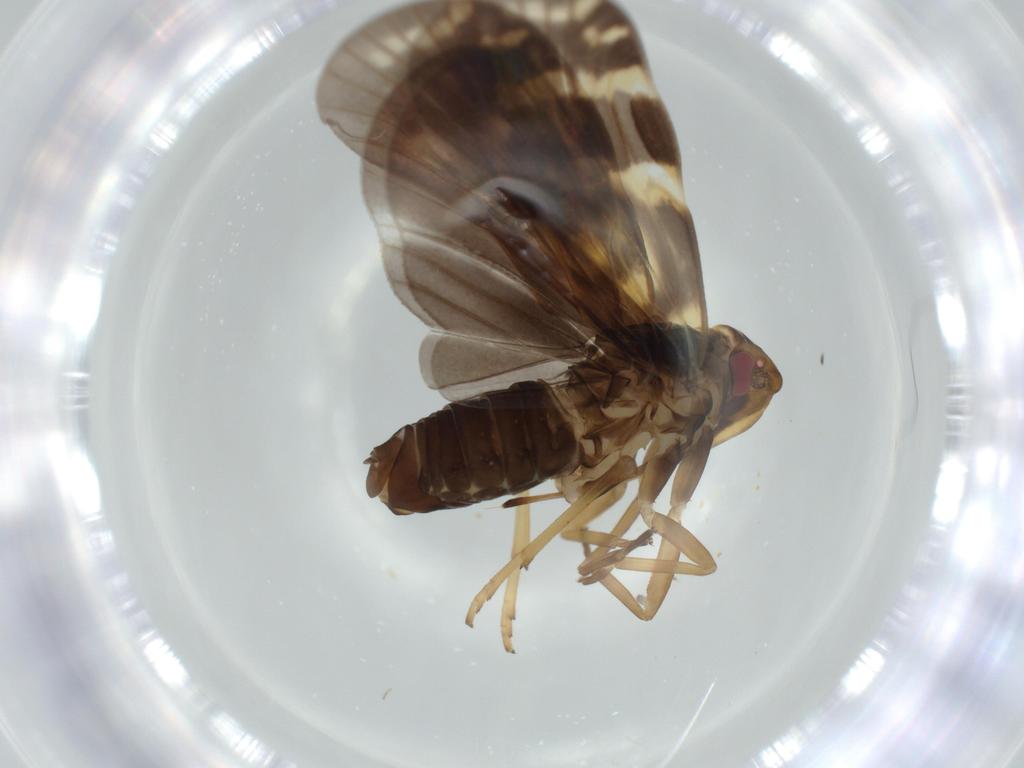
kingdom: Animalia
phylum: Arthropoda
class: Insecta
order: Hemiptera
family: Cixiidae
